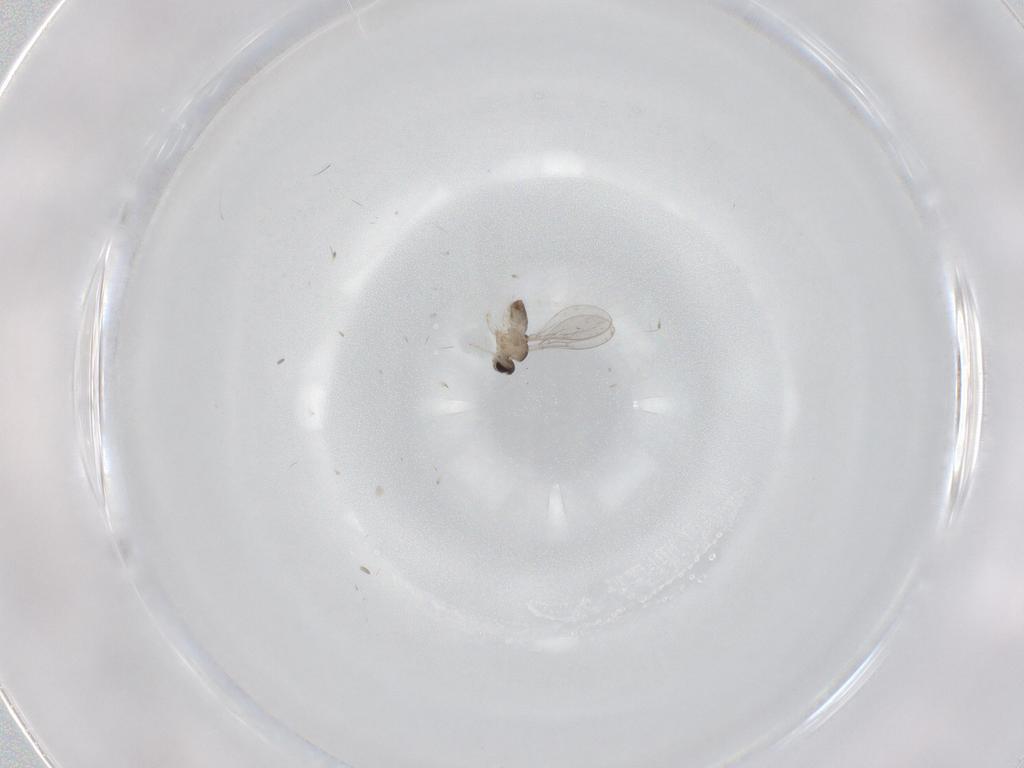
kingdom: Animalia
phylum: Arthropoda
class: Insecta
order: Diptera
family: Cecidomyiidae
